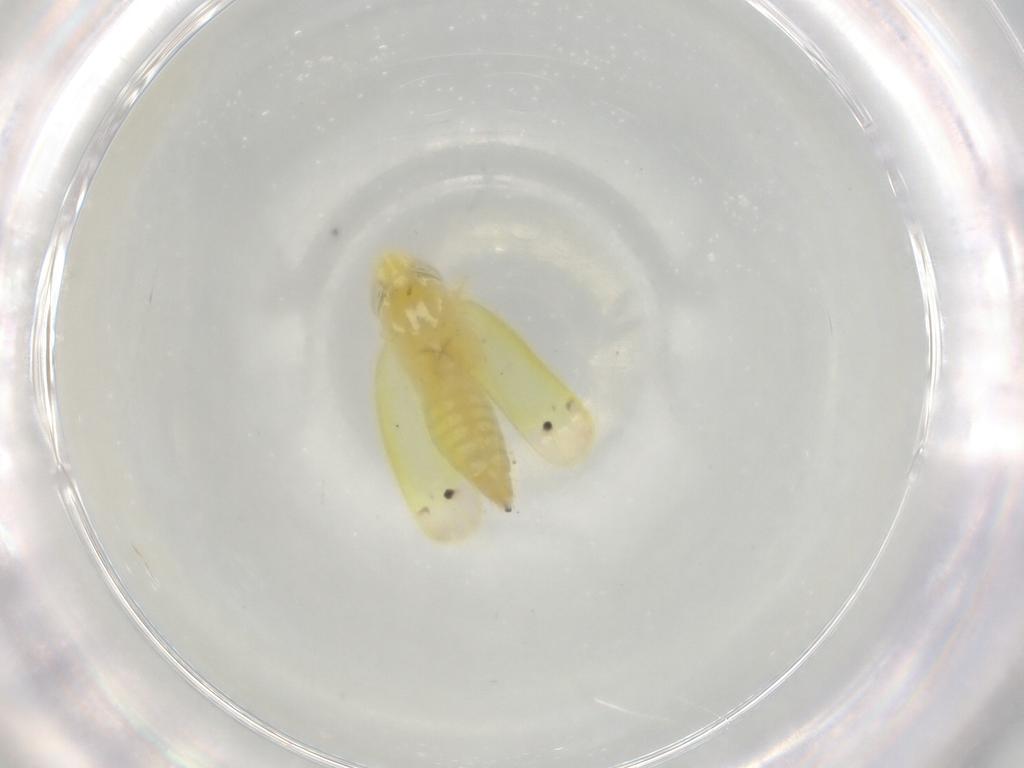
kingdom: Animalia
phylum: Arthropoda
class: Insecta
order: Hemiptera
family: Cicadellidae
